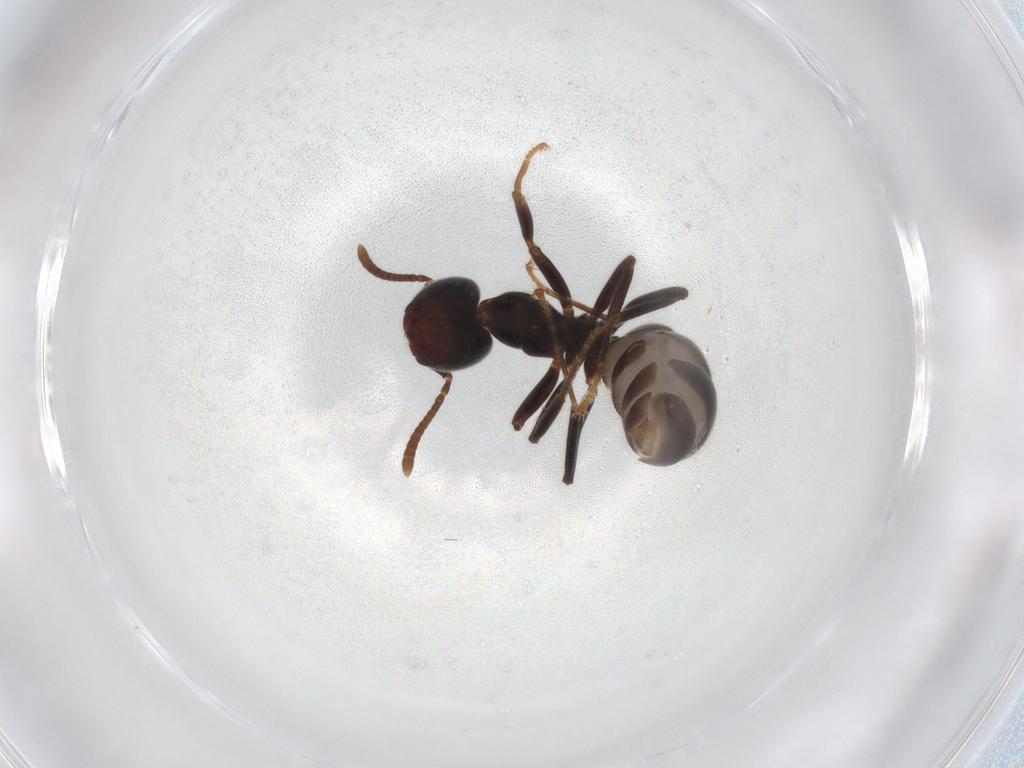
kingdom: Animalia
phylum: Arthropoda
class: Insecta
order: Hymenoptera
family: Formicidae
